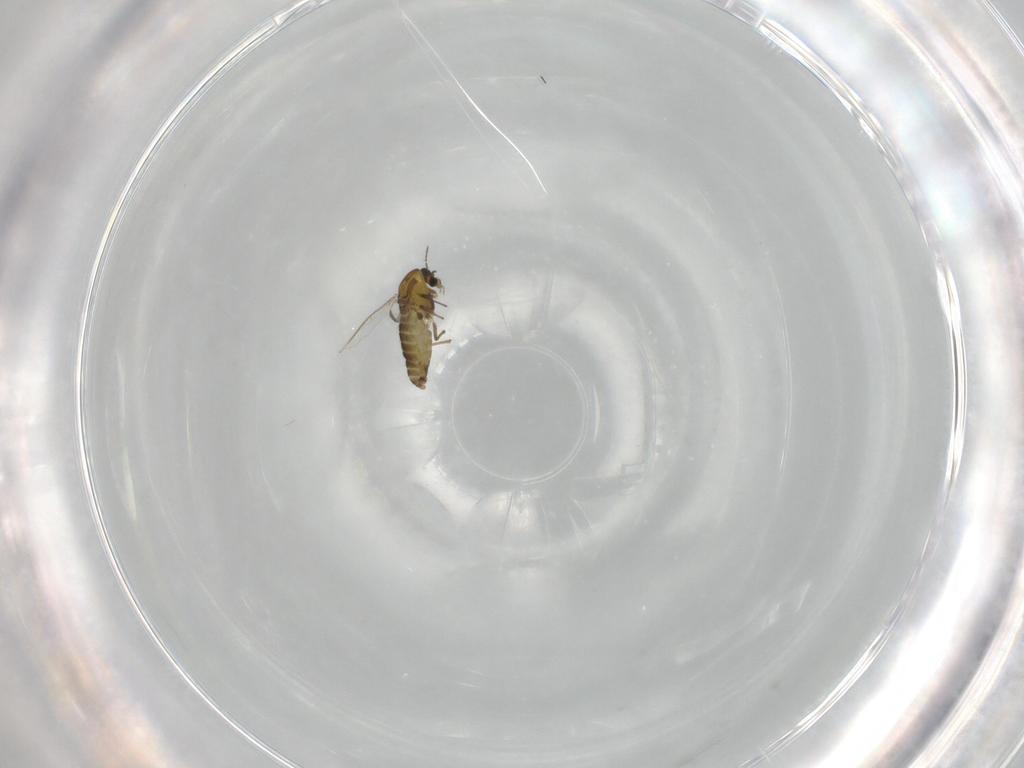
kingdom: Animalia
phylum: Arthropoda
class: Insecta
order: Diptera
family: Chironomidae
